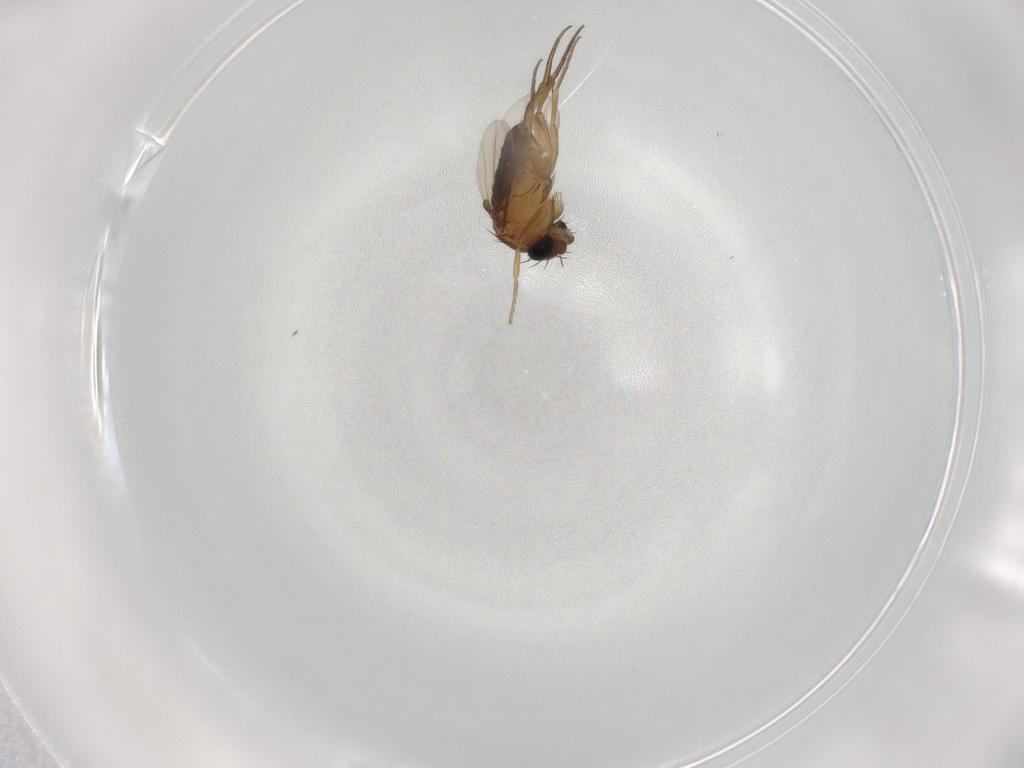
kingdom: Animalia
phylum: Arthropoda
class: Insecta
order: Diptera
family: Phoridae
